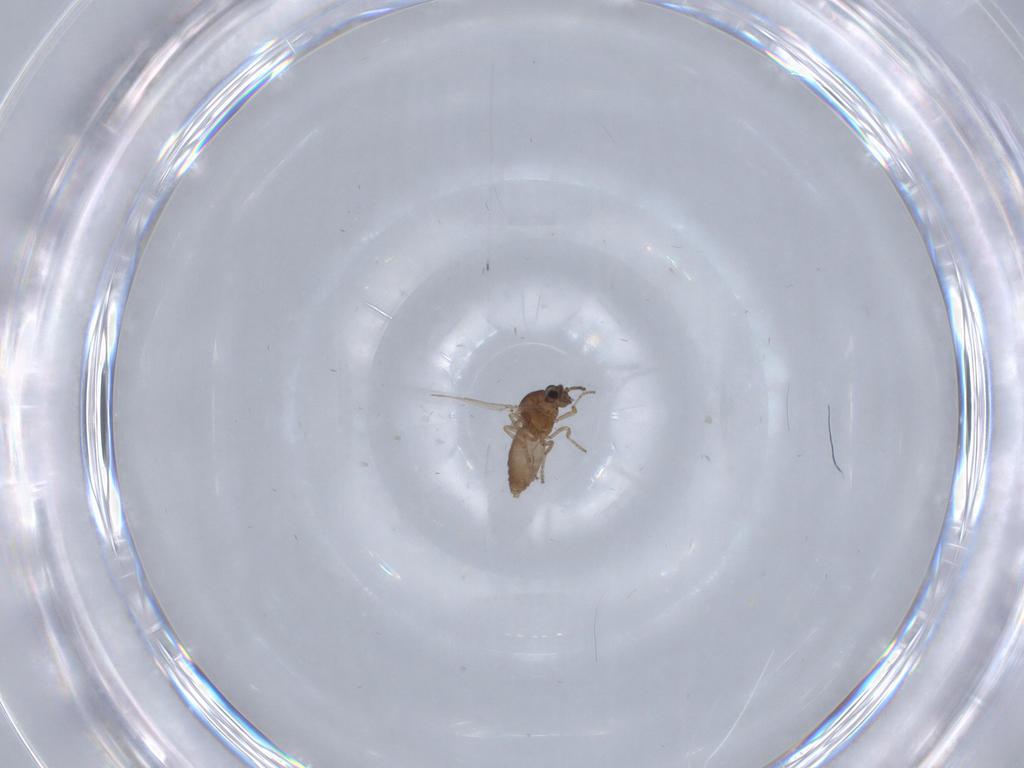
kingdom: Animalia
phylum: Arthropoda
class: Insecta
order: Diptera
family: Ceratopogonidae
